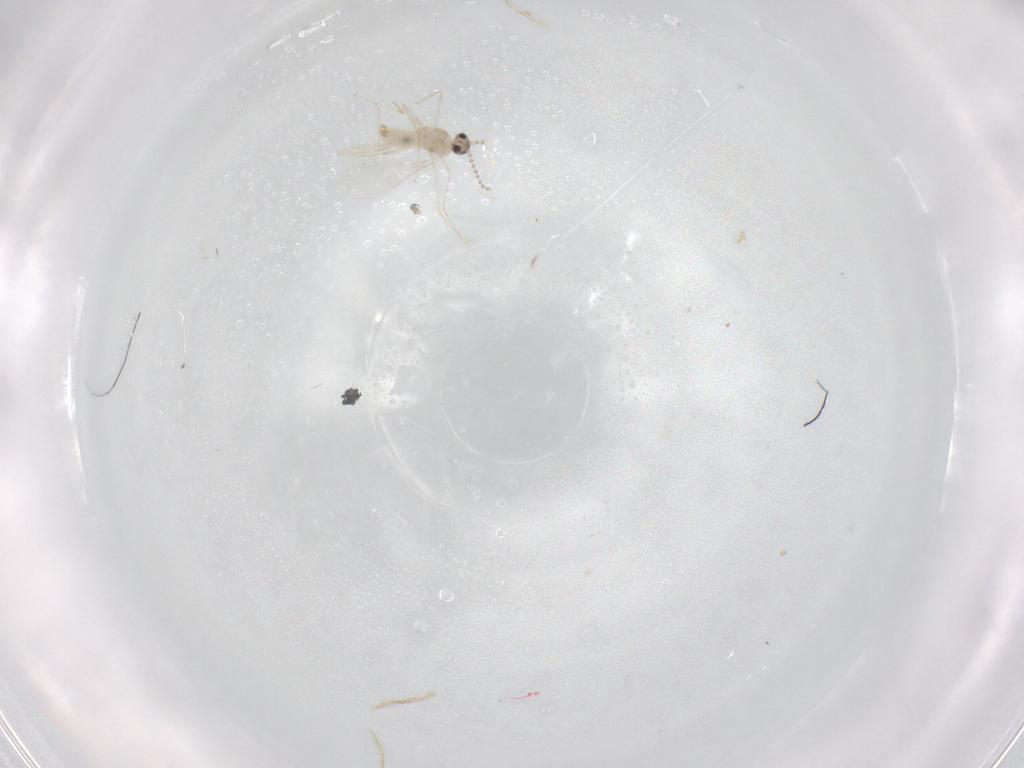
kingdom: Animalia
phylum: Arthropoda
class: Insecta
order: Diptera
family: Cecidomyiidae
